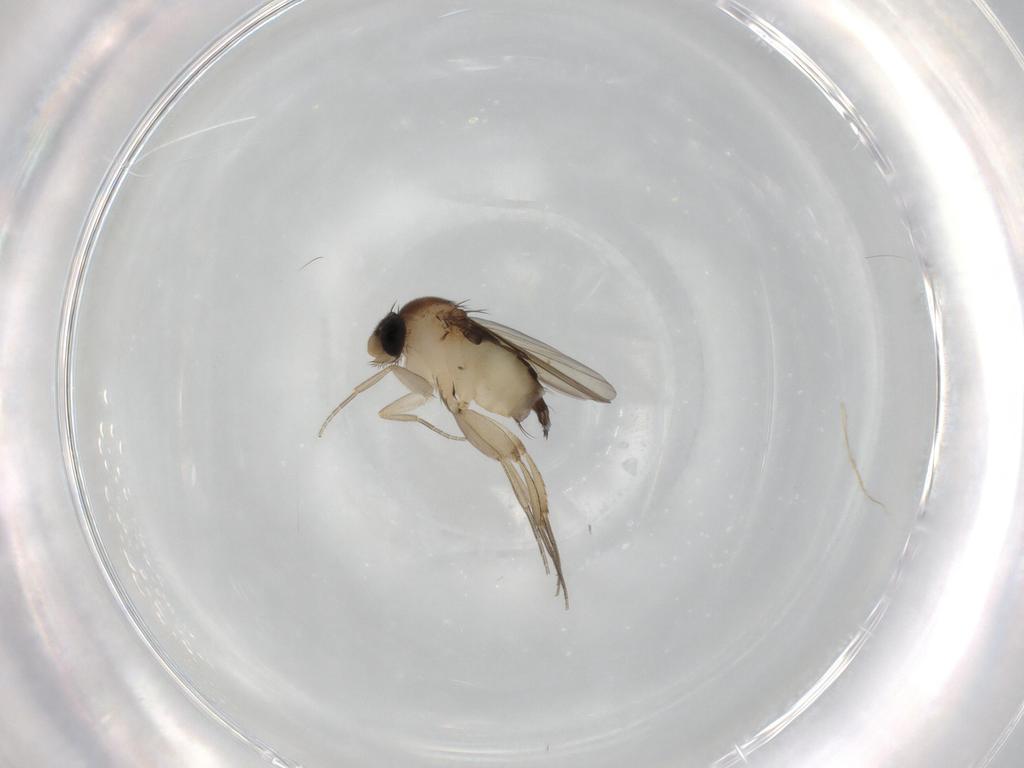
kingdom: Animalia
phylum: Arthropoda
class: Insecta
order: Diptera
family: Phoridae
